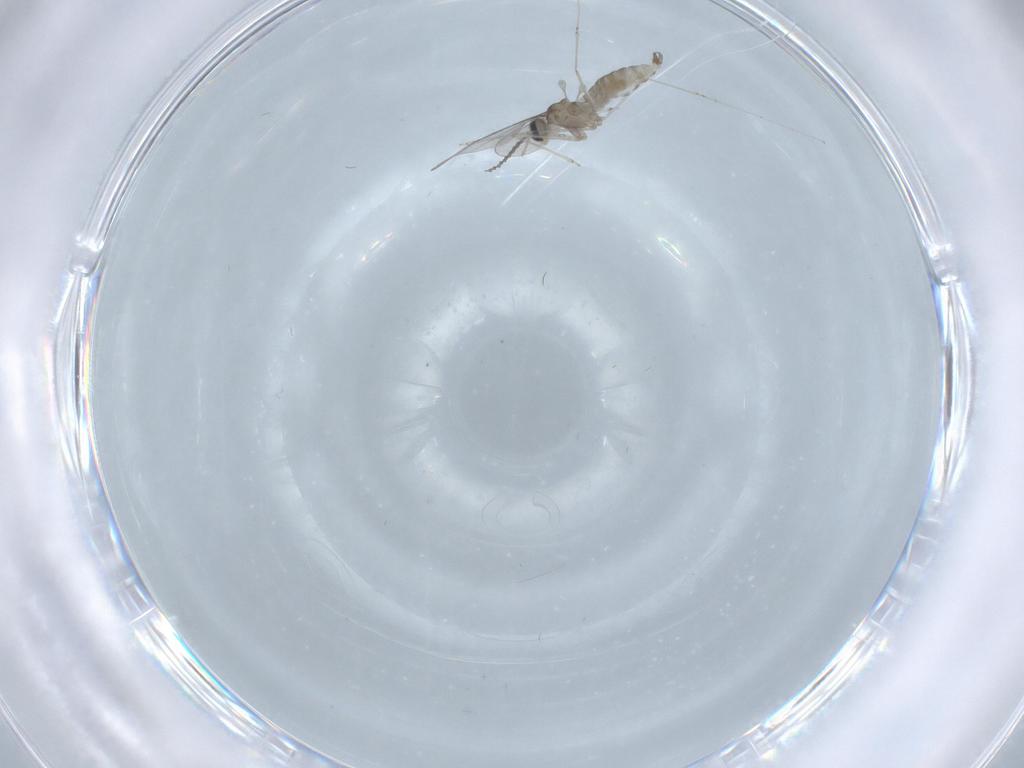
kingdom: Animalia
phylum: Arthropoda
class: Insecta
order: Diptera
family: Cecidomyiidae
